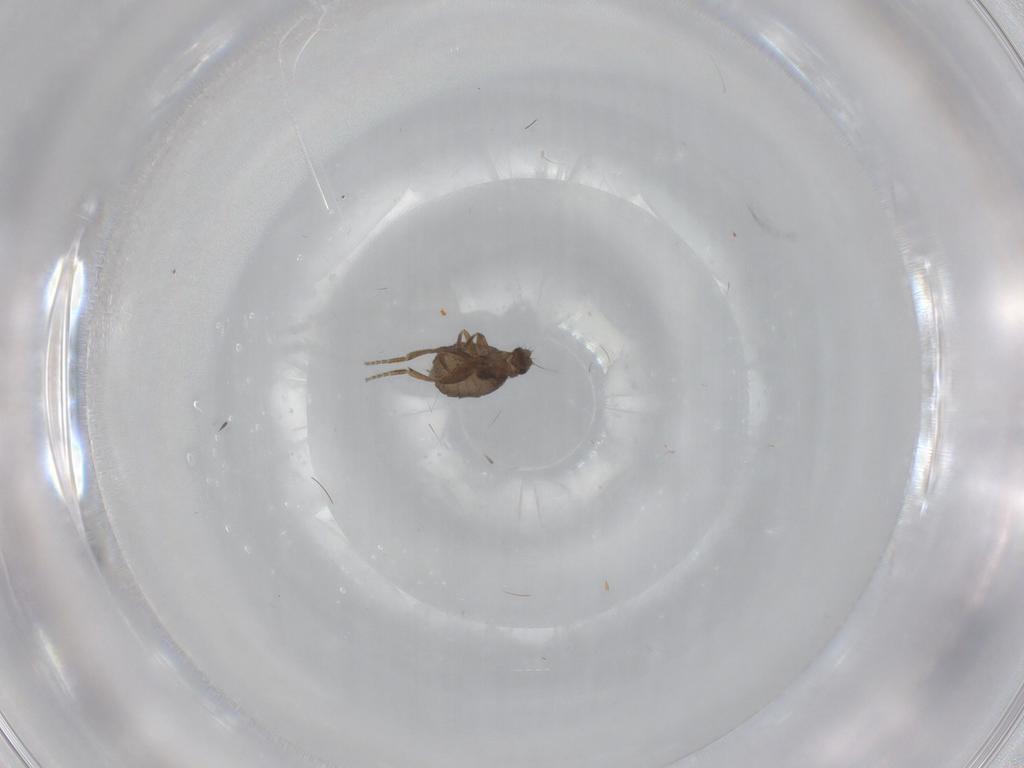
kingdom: Animalia
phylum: Arthropoda
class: Insecta
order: Diptera
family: Phoridae
